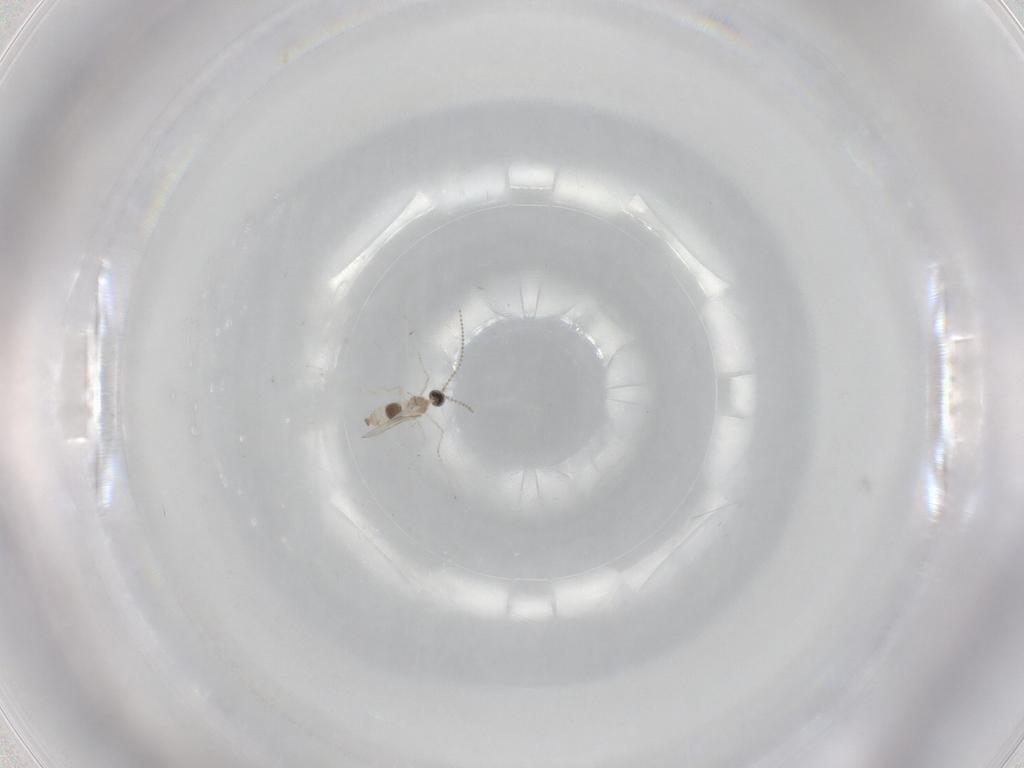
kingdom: Animalia
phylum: Arthropoda
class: Insecta
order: Diptera
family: Cecidomyiidae
